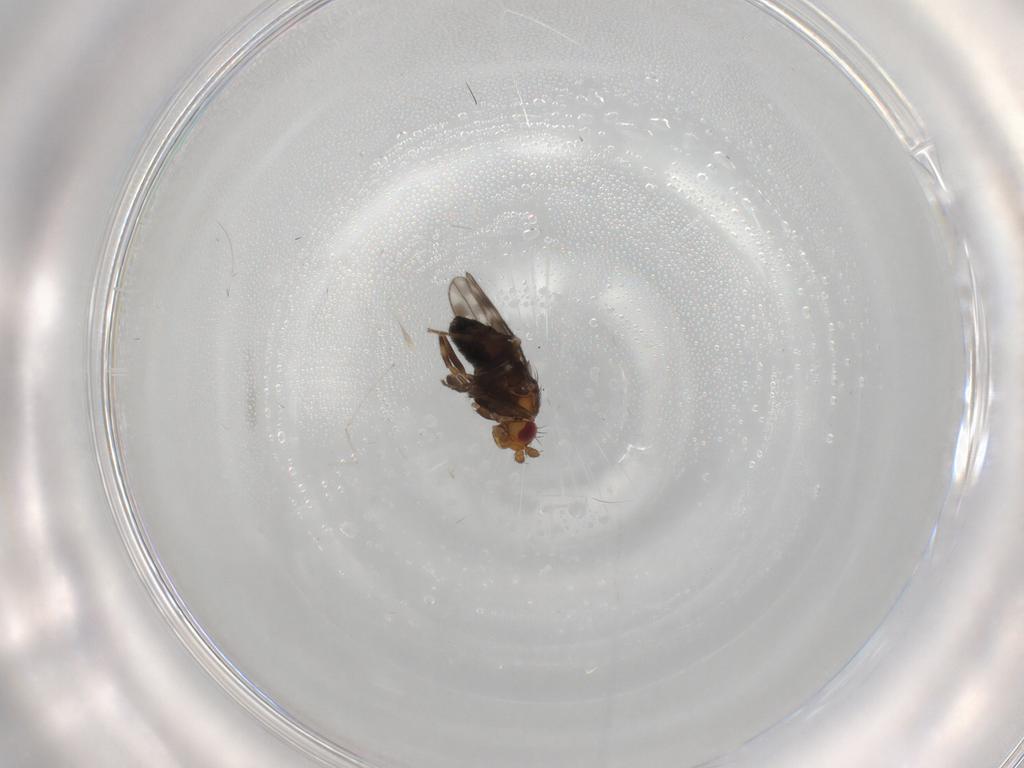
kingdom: Animalia
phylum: Arthropoda
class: Insecta
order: Diptera
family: Sphaeroceridae
